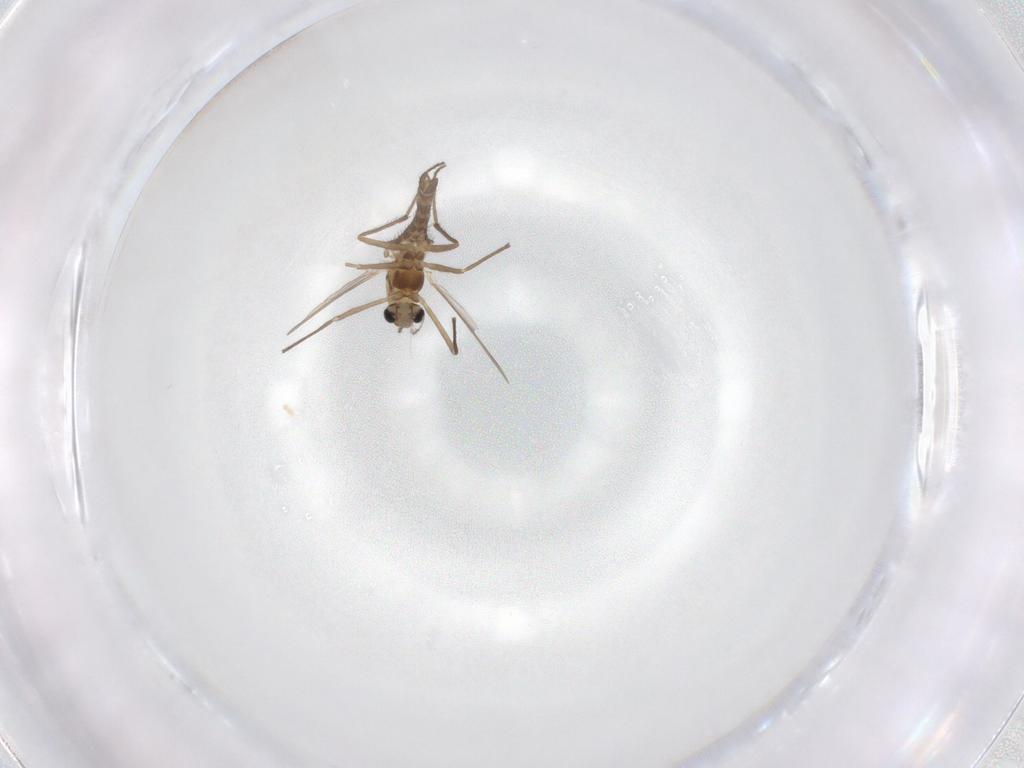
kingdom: Animalia
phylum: Arthropoda
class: Insecta
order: Diptera
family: Chironomidae
